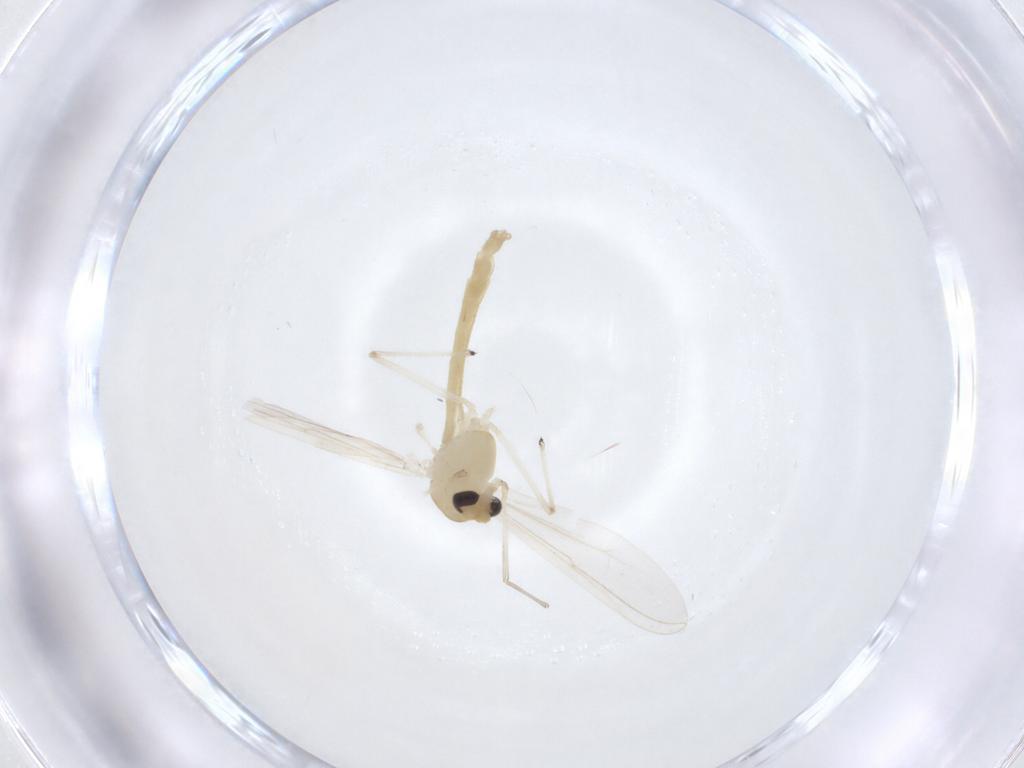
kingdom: Animalia
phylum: Arthropoda
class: Insecta
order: Diptera
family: Chironomidae
